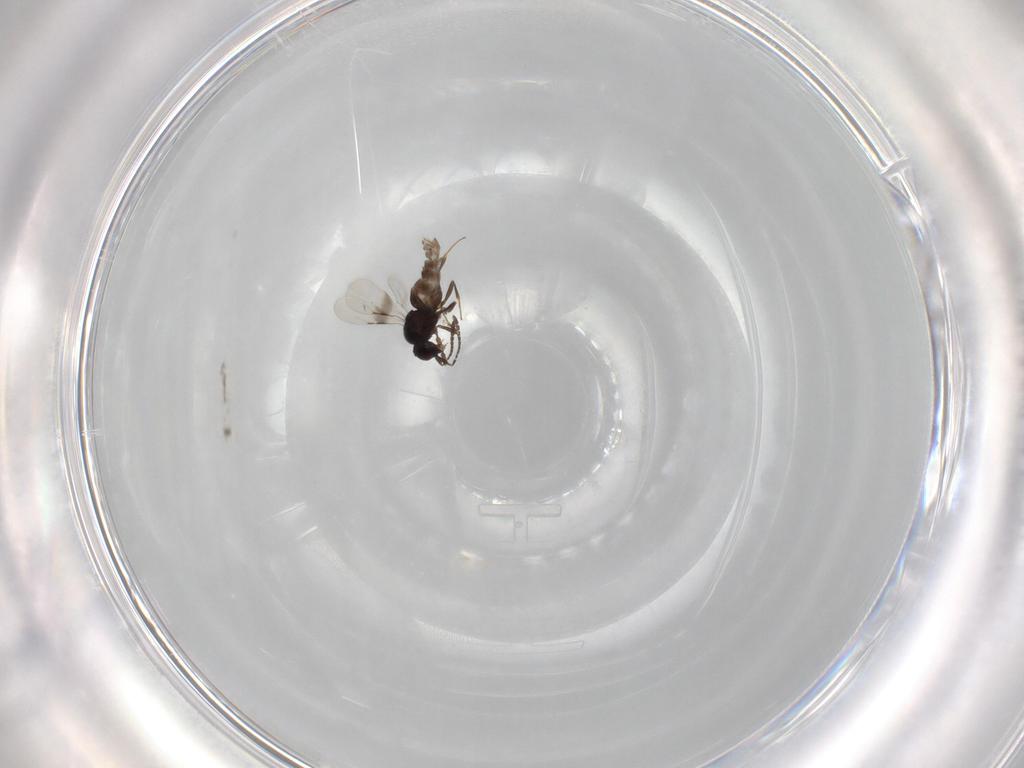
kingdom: Animalia
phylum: Arthropoda
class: Insecta
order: Hymenoptera
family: Ceraphronidae
